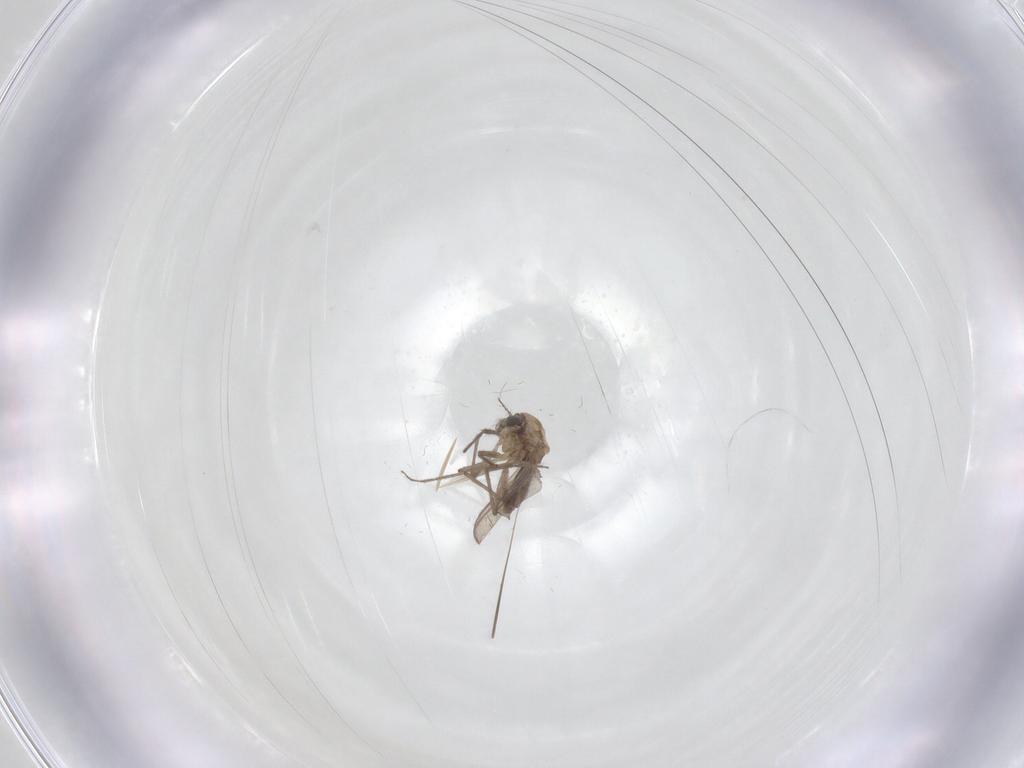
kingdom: Animalia
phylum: Arthropoda
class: Insecta
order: Diptera
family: Chironomidae
